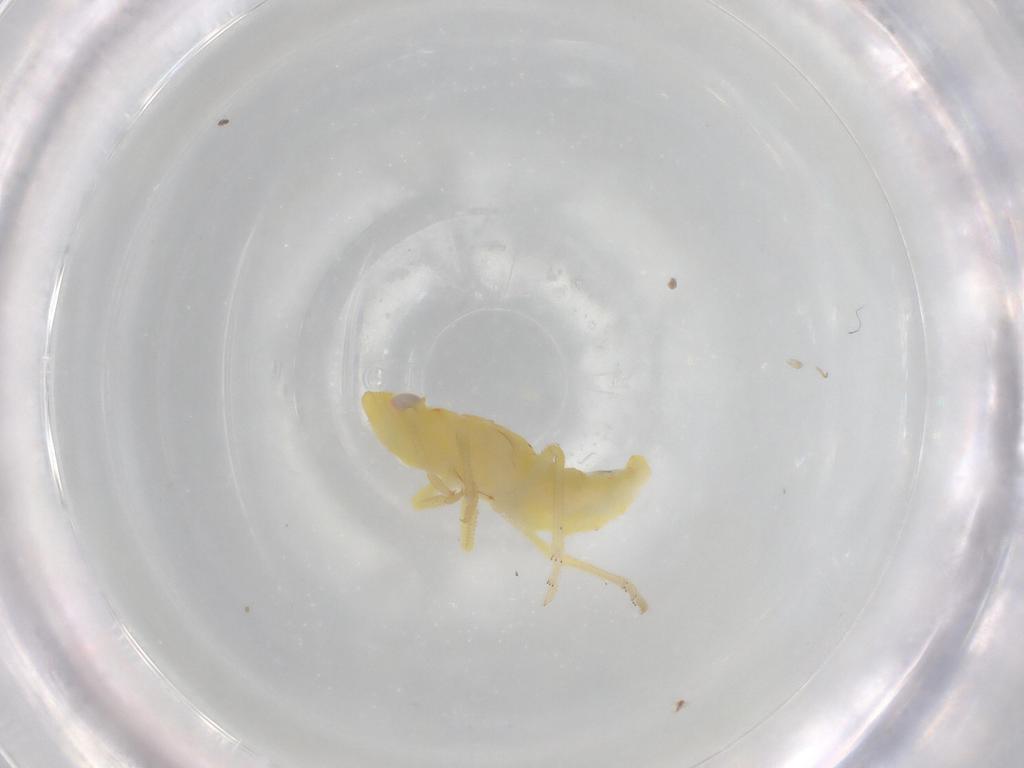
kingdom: Animalia
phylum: Arthropoda
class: Insecta
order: Hemiptera
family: Tropiduchidae
